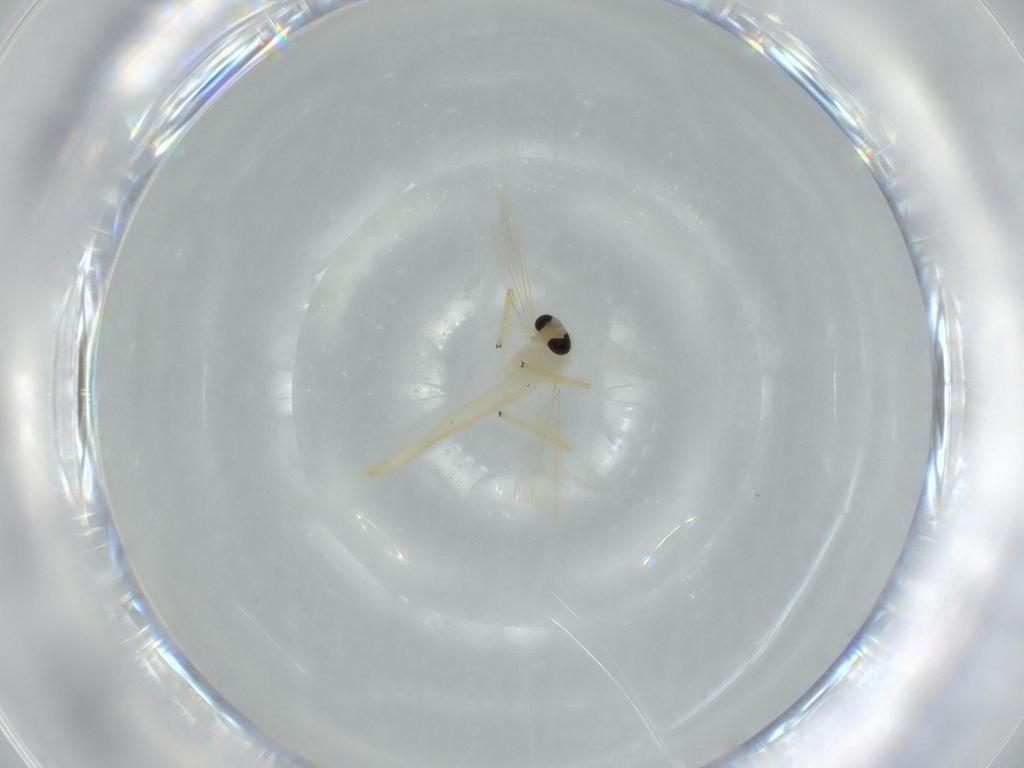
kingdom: Animalia
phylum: Arthropoda
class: Insecta
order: Diptera
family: Chironomidae
